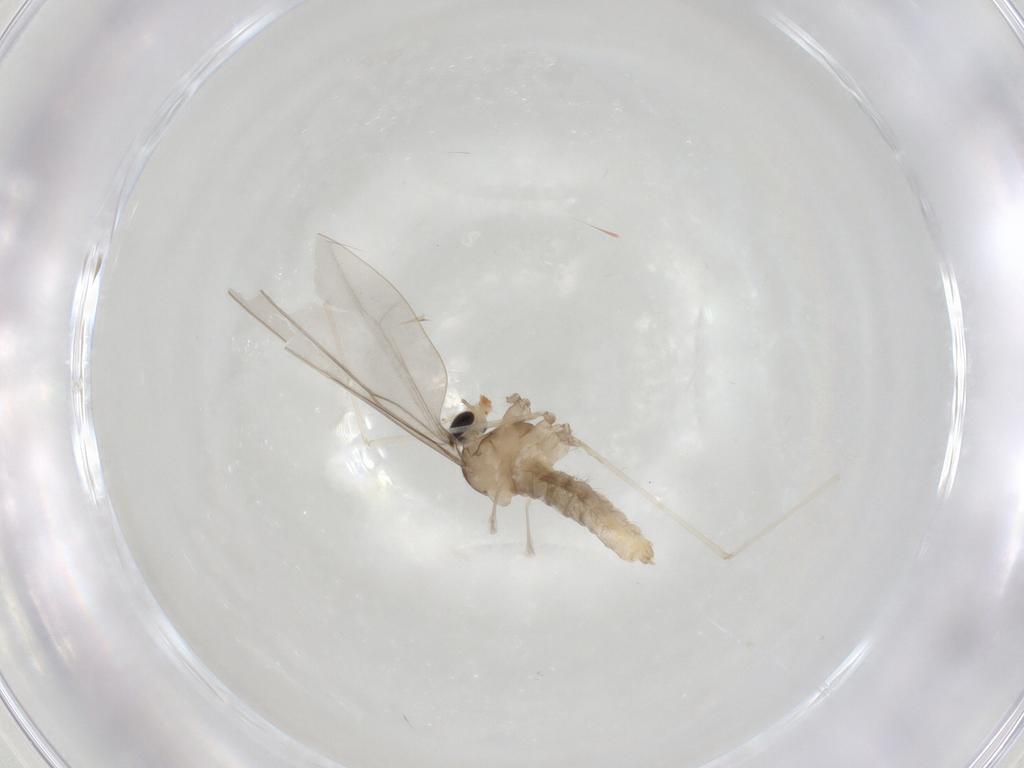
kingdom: Animalia
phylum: Arthropoda
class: Insecta
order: Diptera
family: Cecidomyiidae
